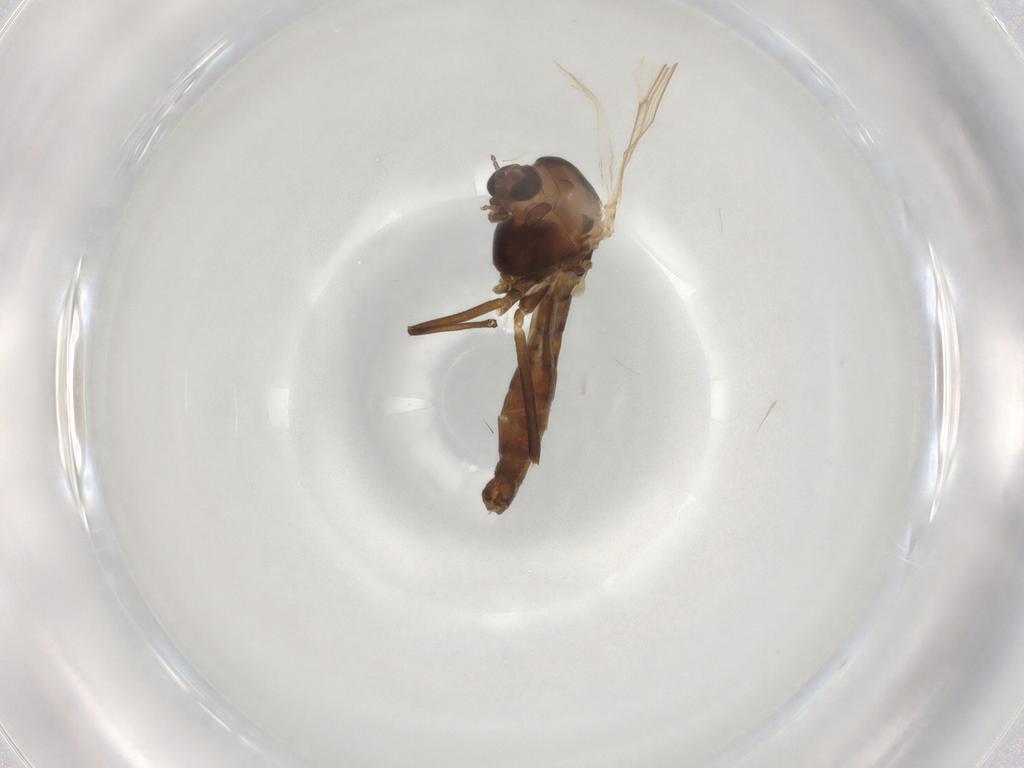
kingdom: Animalia
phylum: Arthropoda
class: Insecta
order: Diptera
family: Chironomidae
